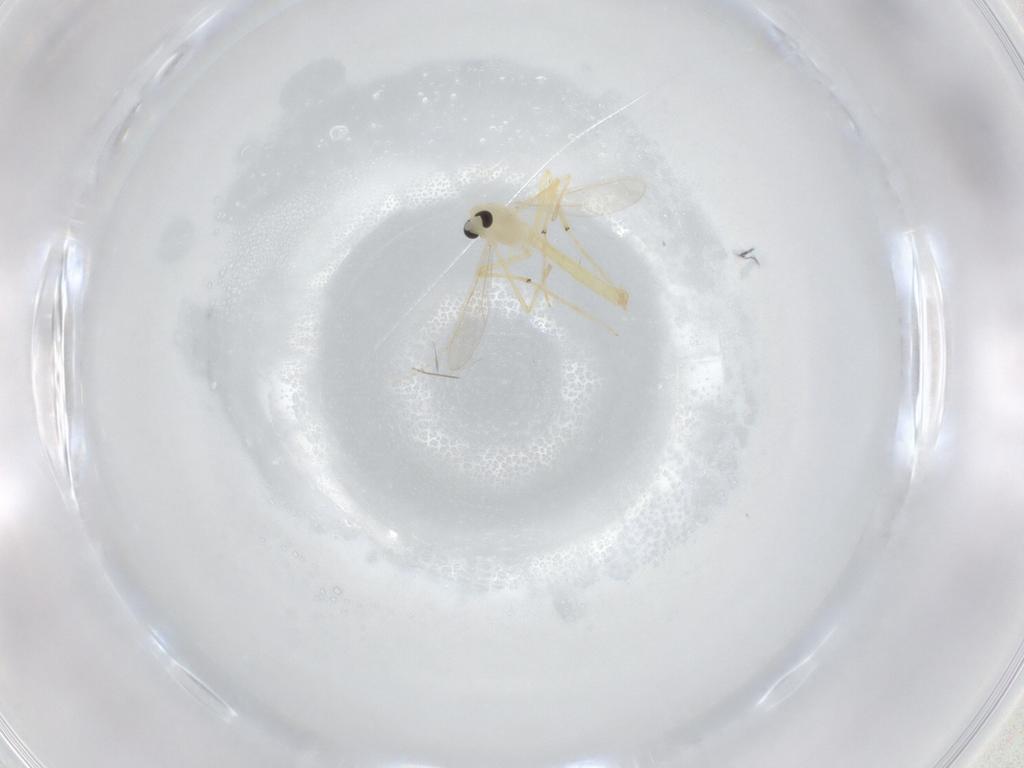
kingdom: Animalia
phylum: Arthropoda
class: Insecta
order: Diptera
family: Chironomidae
